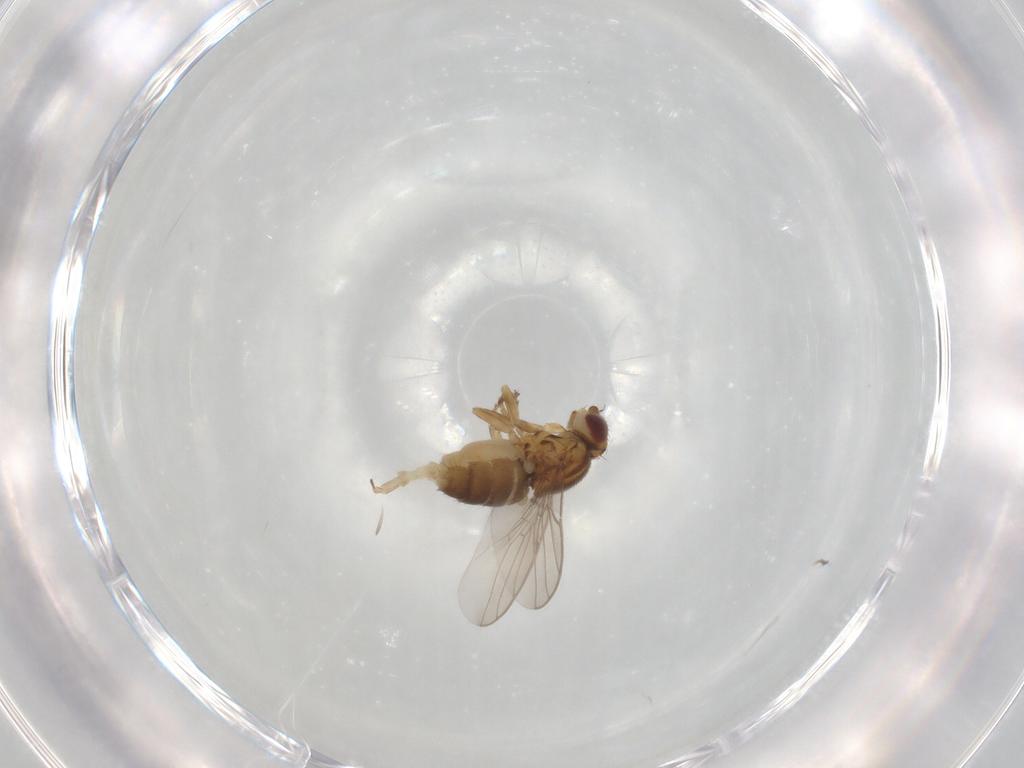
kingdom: Animalia
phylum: Arthropoda
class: Insecta
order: Diptera
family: Chloropidae
